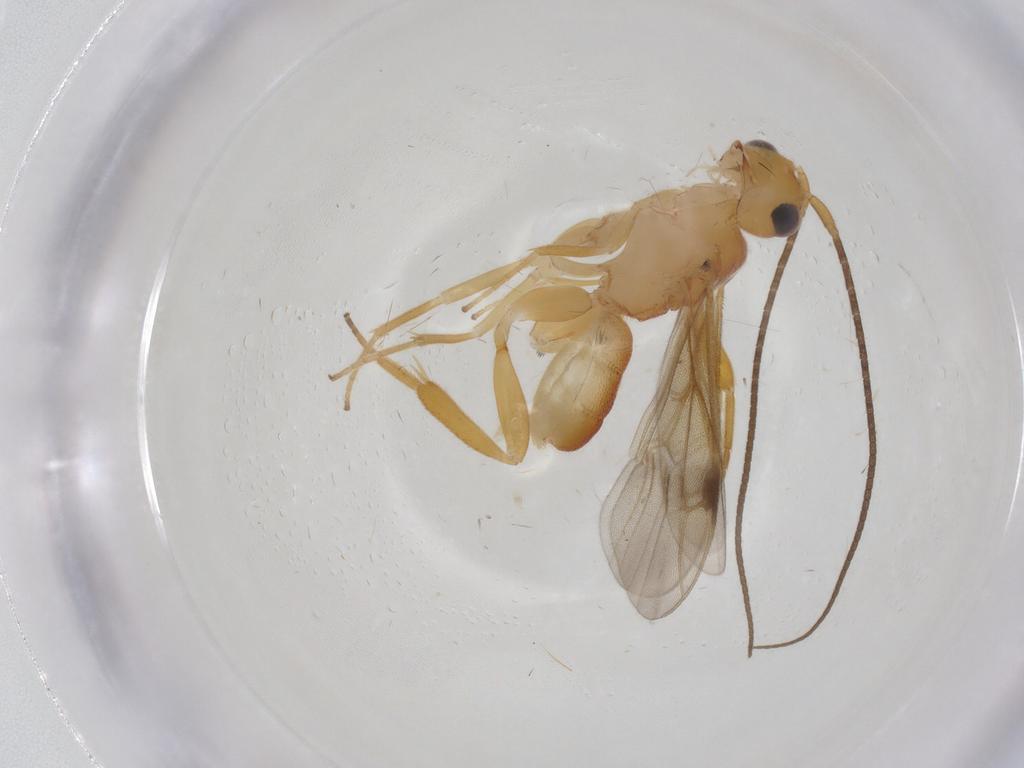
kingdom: Animalia
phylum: Arthropoda
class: Insecta
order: Hymenoptera
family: Braconidae
